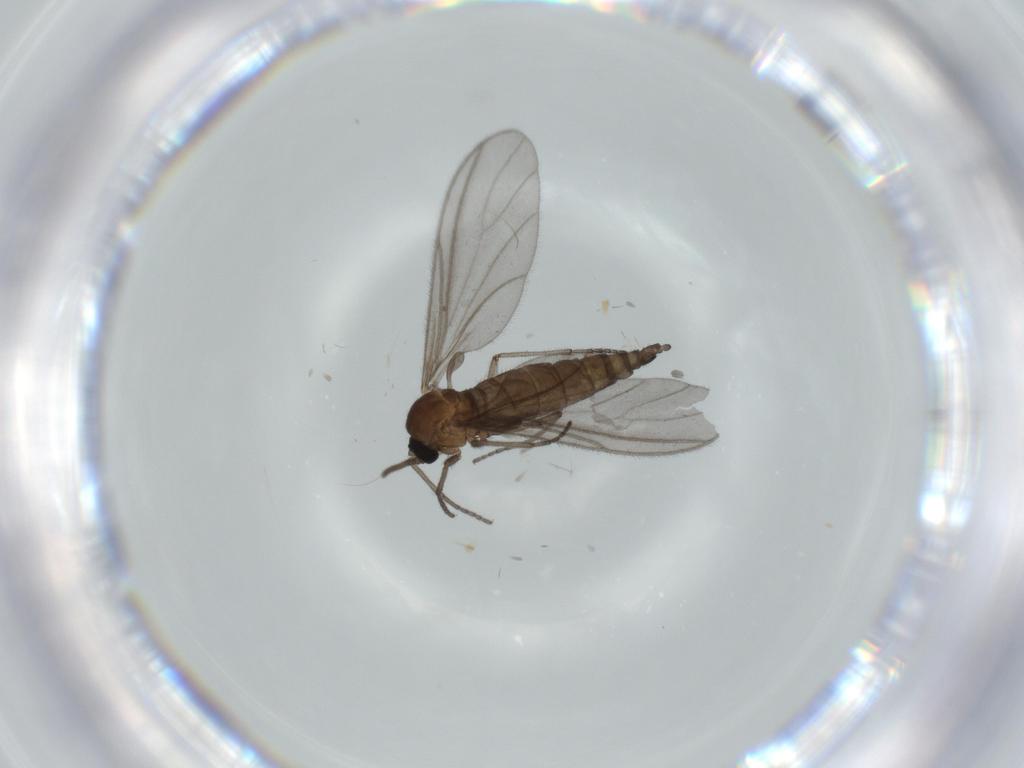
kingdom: Animalia
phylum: Arthropoda
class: Insecta
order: Diptera
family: Sciaridae
